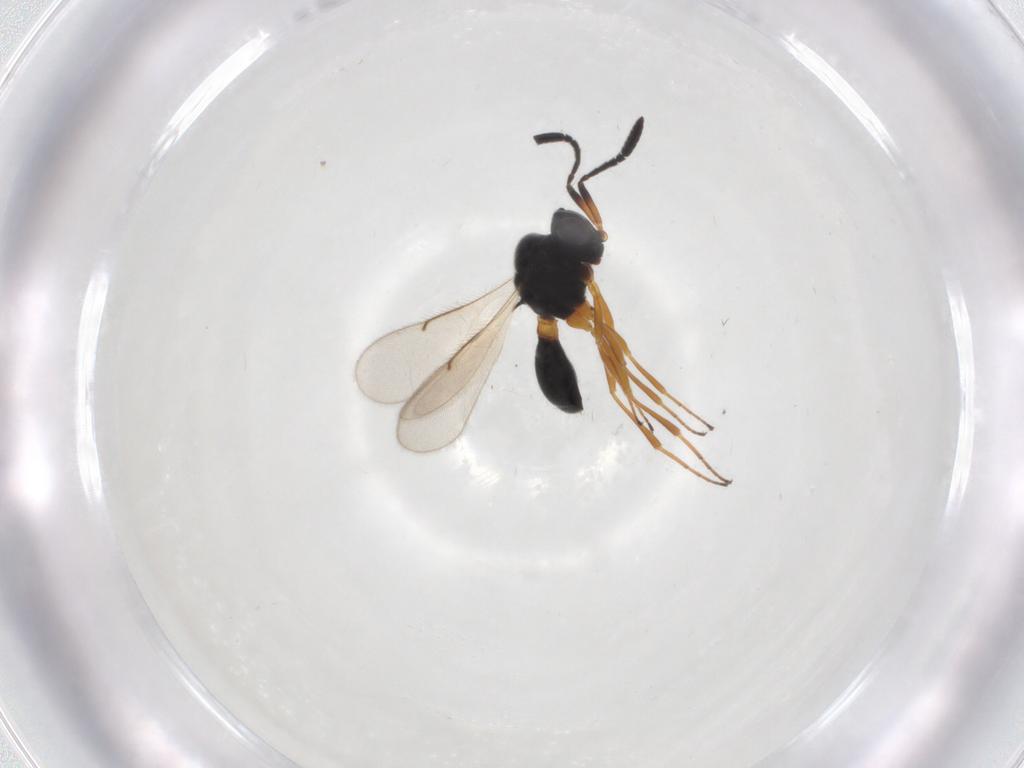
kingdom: Animalia
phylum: Arthropoda
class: Insecta
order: Hymenoptera
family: Scelionidae
